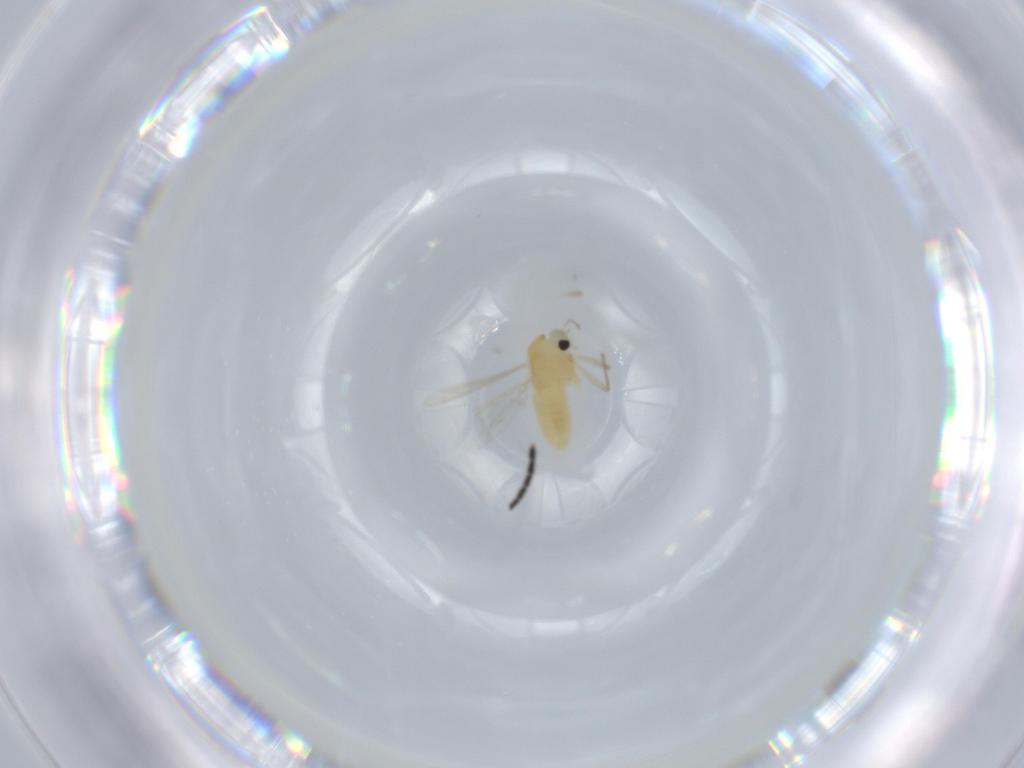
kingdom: Animalia
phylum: Arthropoda
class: Insecta
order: Diptera
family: Chironomidae
